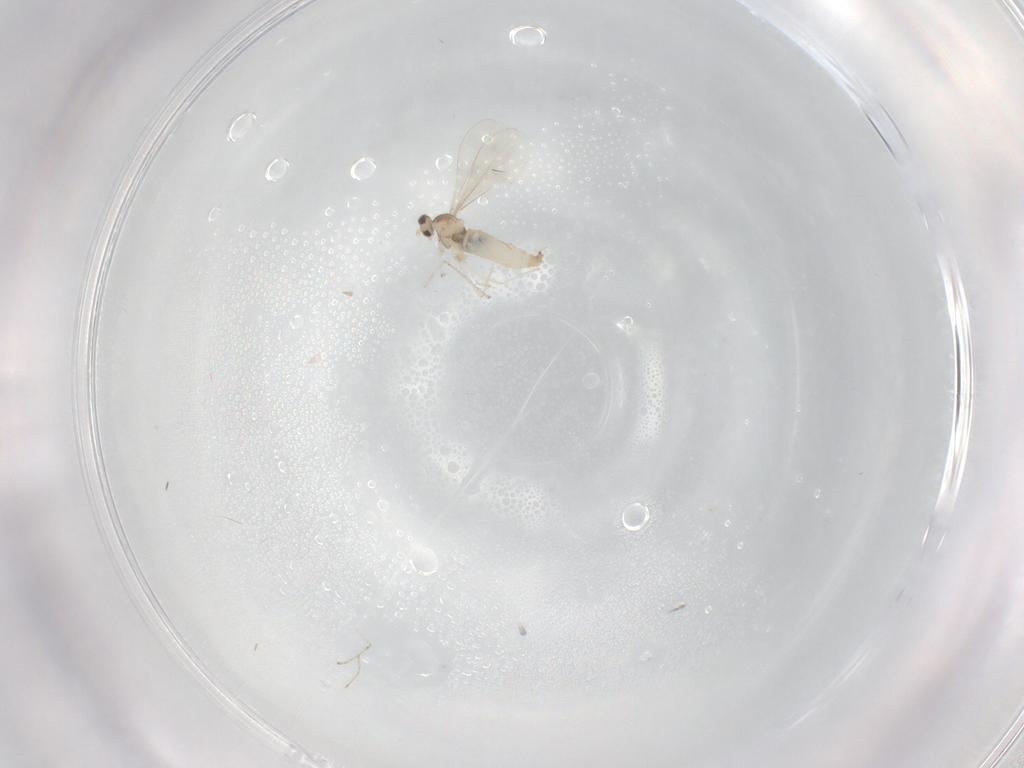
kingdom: Animalia
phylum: Arthropoda
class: Insecta
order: Diptera
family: Cecidomyiidae
